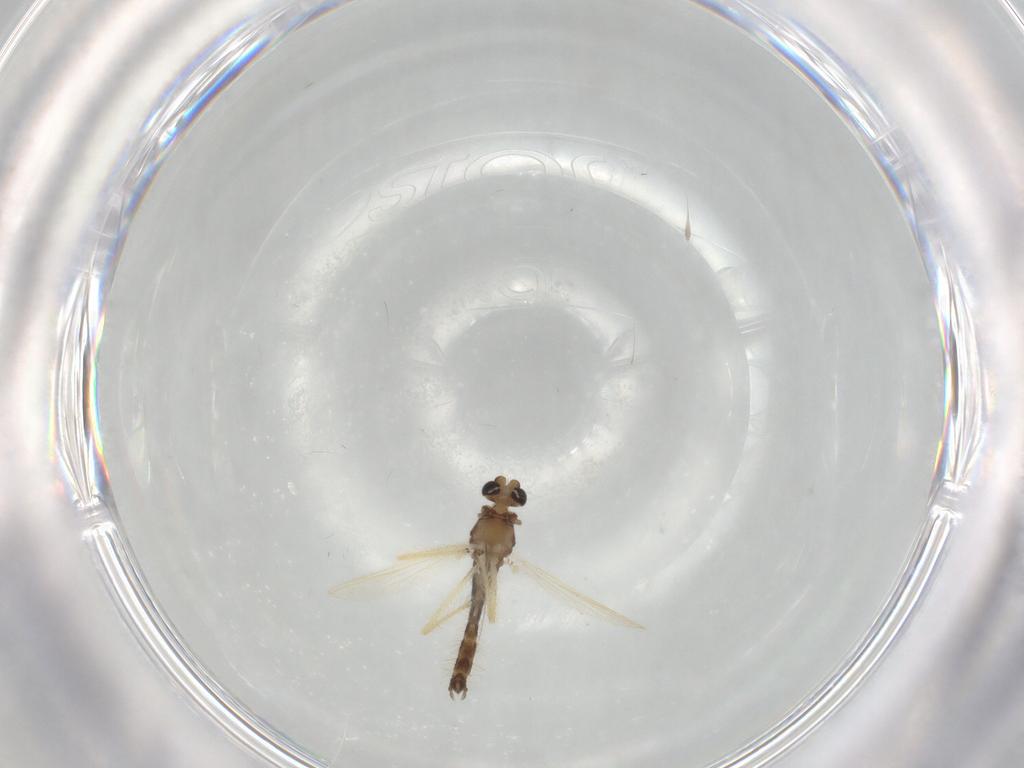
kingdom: Animalia
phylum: Arthropoda
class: Insecta
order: Diptera
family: Chironomidae
